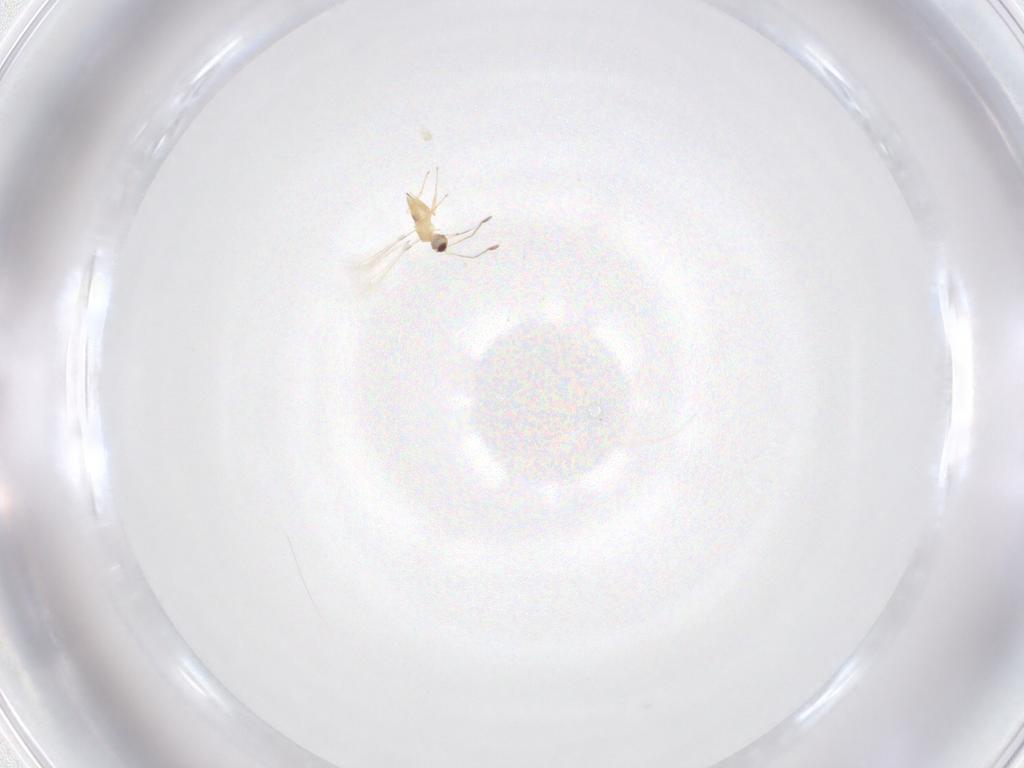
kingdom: Animalia
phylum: Arthropoda
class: Insecta
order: Hymenoptera
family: Mymaridae
